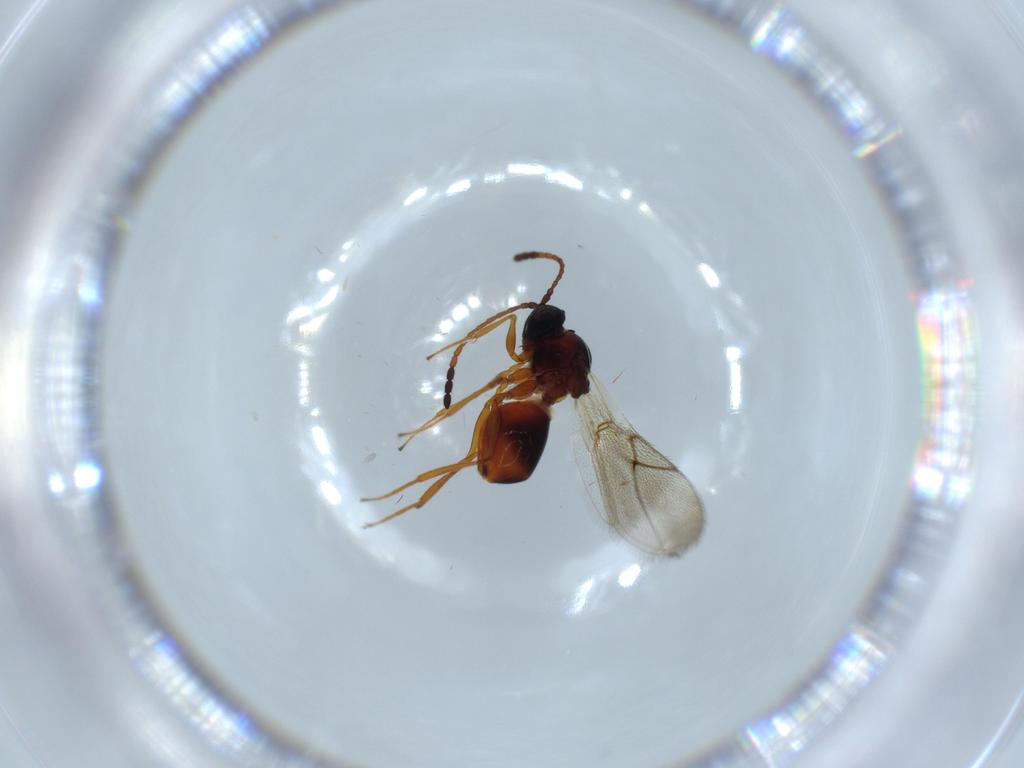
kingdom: Animalia
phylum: Arthropoda
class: Insecta
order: Hymenoptera
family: Figitidae
